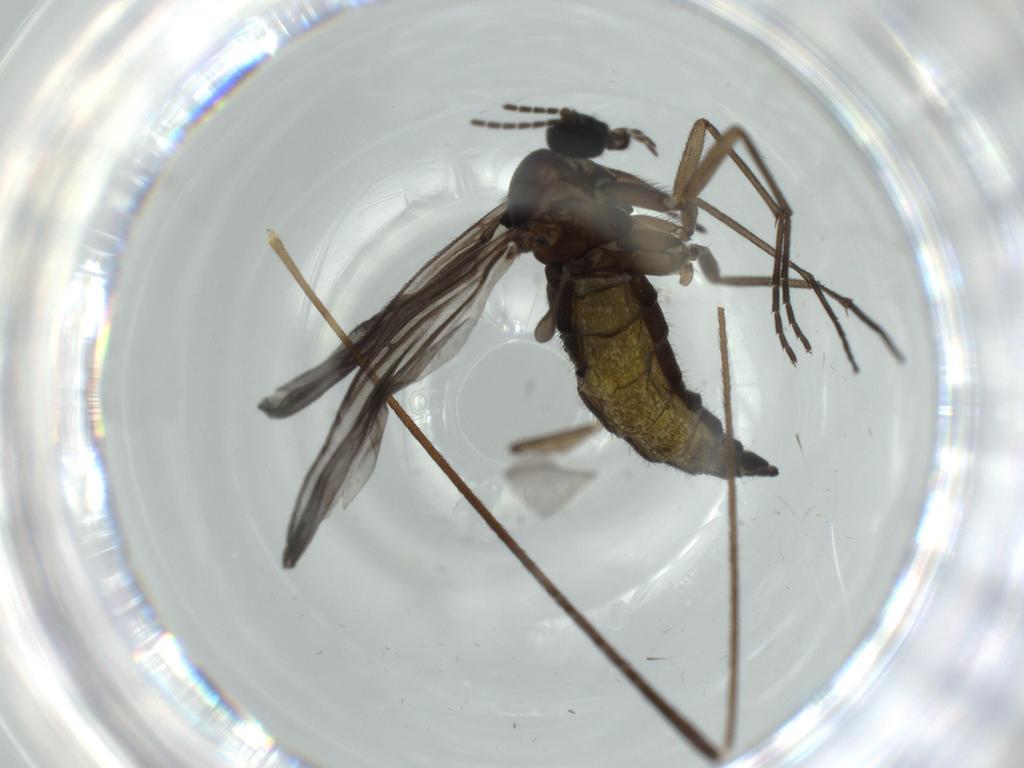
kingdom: Animalia
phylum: Arthropoda
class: Insecta
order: Diptera
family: Sciaridae
